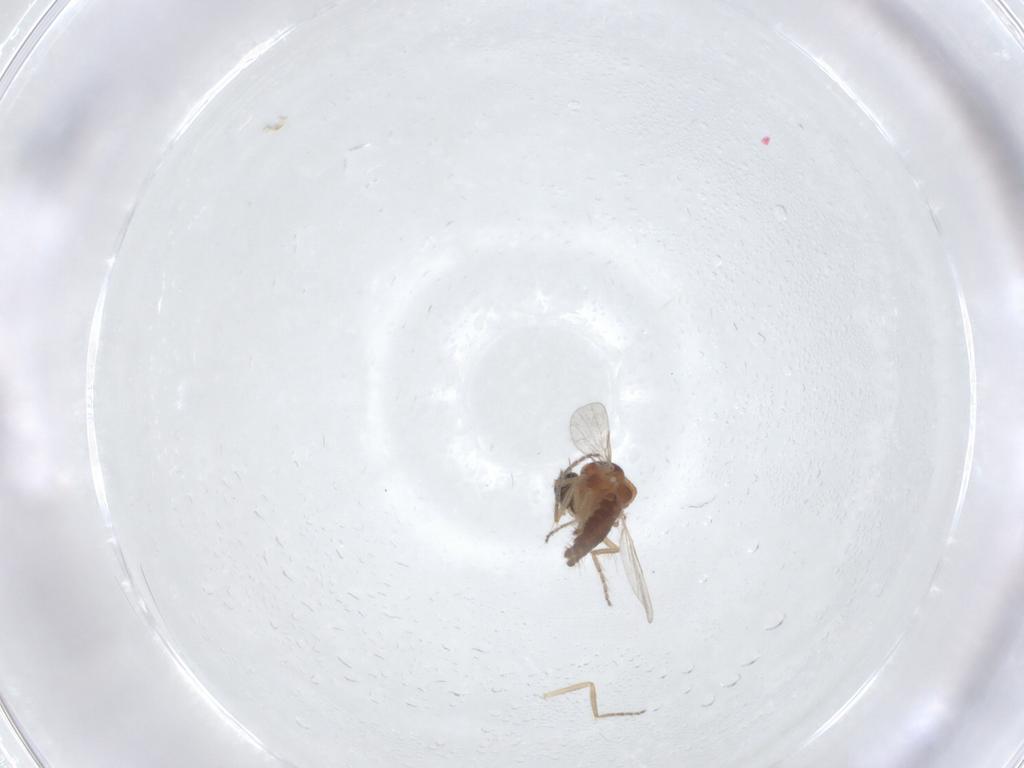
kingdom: Animalia
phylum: Arthropoda
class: Insecta
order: Diptera
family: Ceratopogonidae
